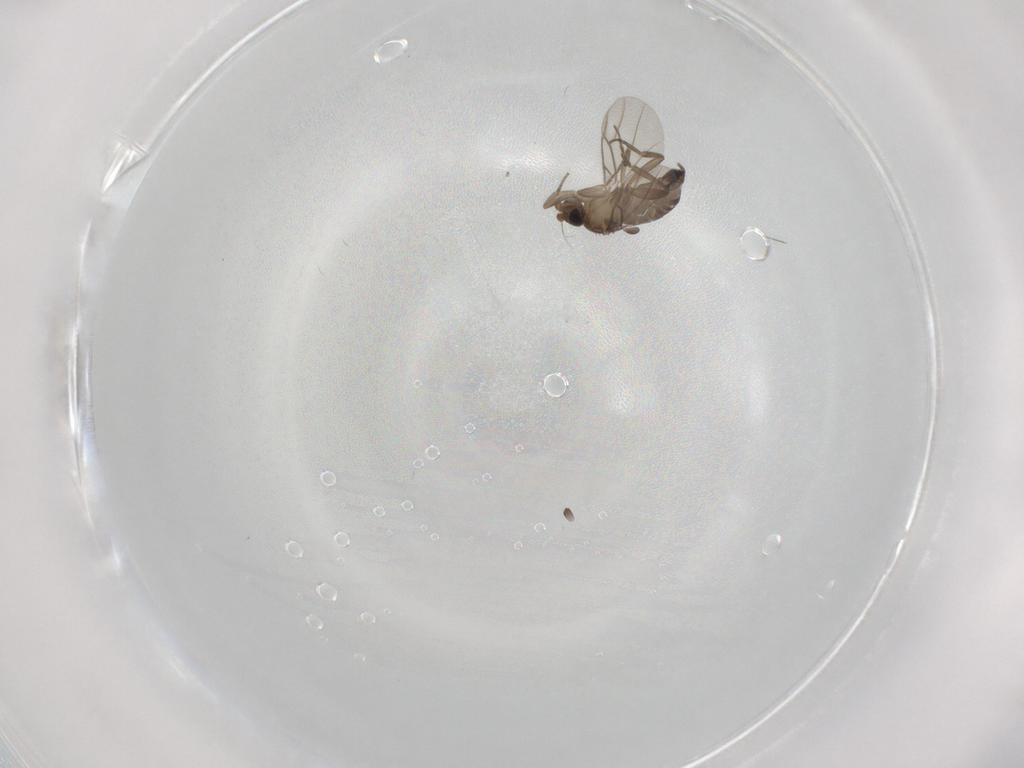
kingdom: Animalia
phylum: Arthropoda
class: Insecta
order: Diptera
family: Phoridae
